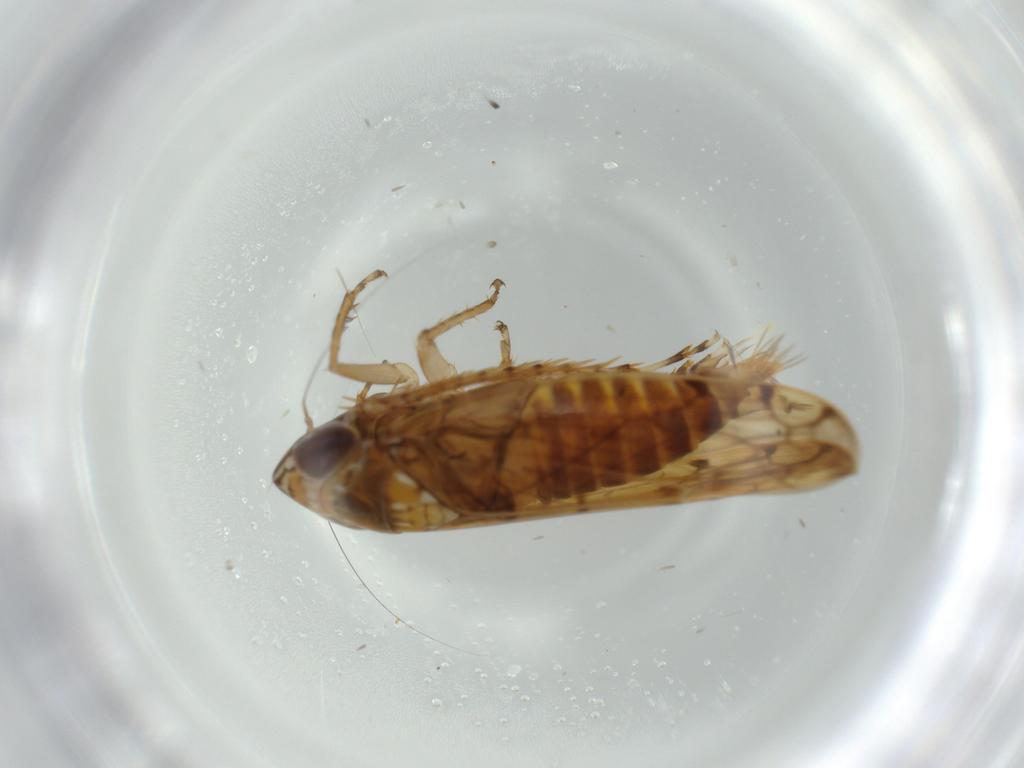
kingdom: Animalia
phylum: Arthropoda
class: Insecta
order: Hemiptera
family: Cicadellidae
